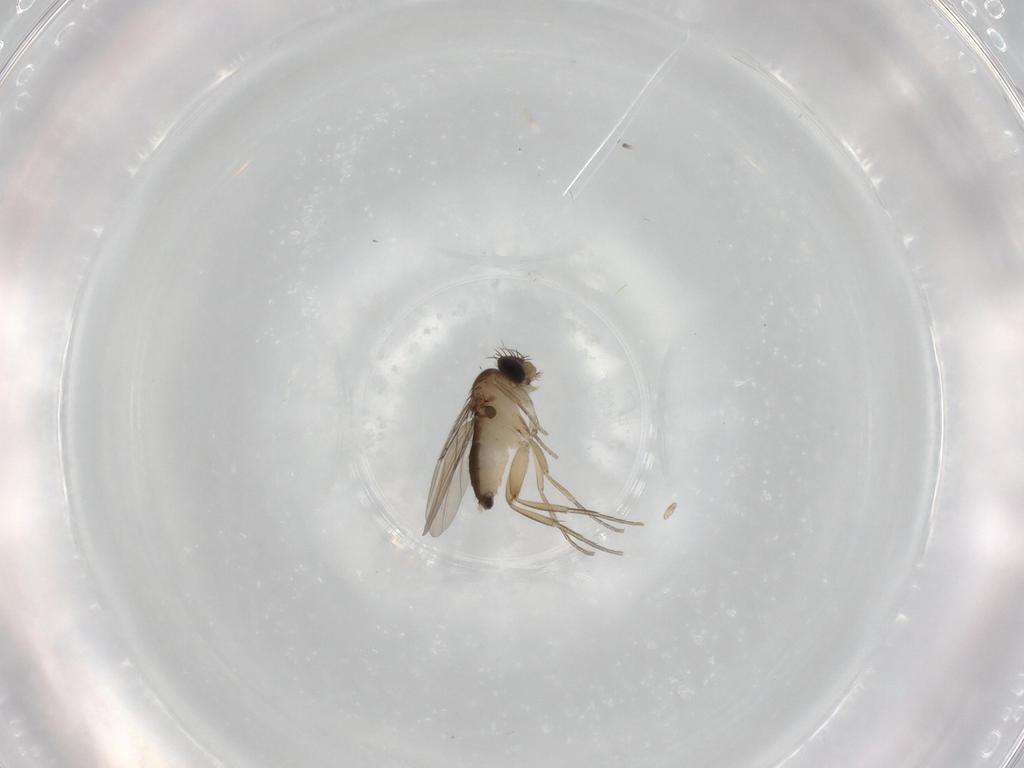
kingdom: Animalia
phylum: Arthropoda
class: Insecta
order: Diptera
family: Phoridae
